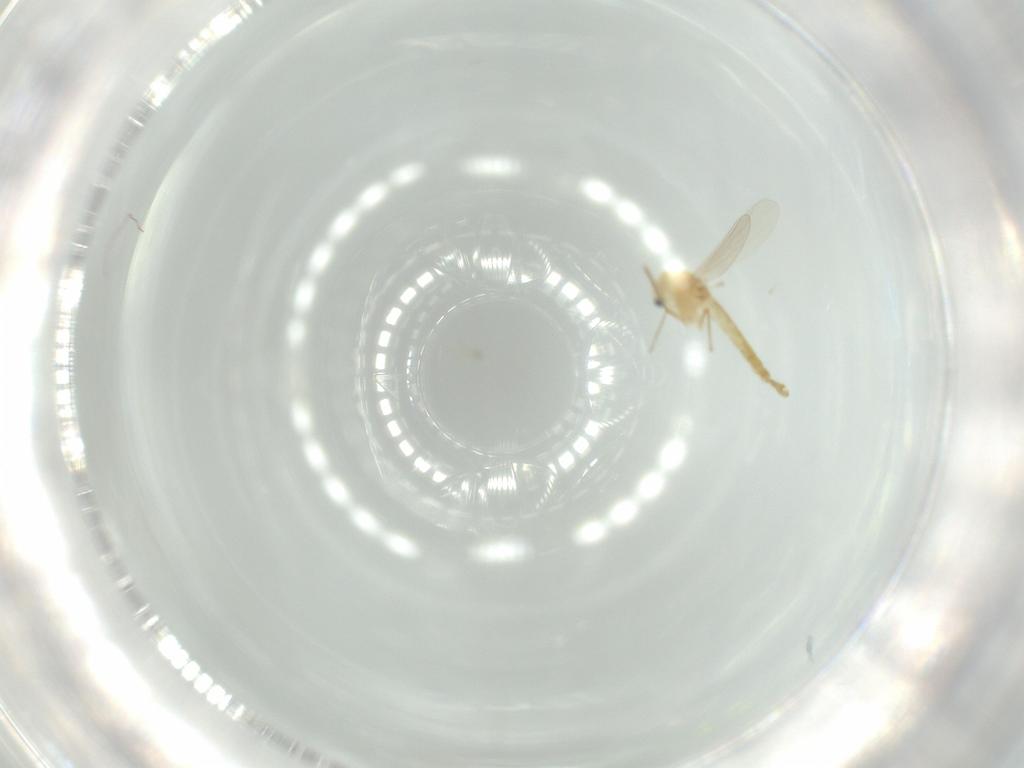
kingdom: Animalia
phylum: Arthropoda
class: Insecta
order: Diptera
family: Chironomidae
